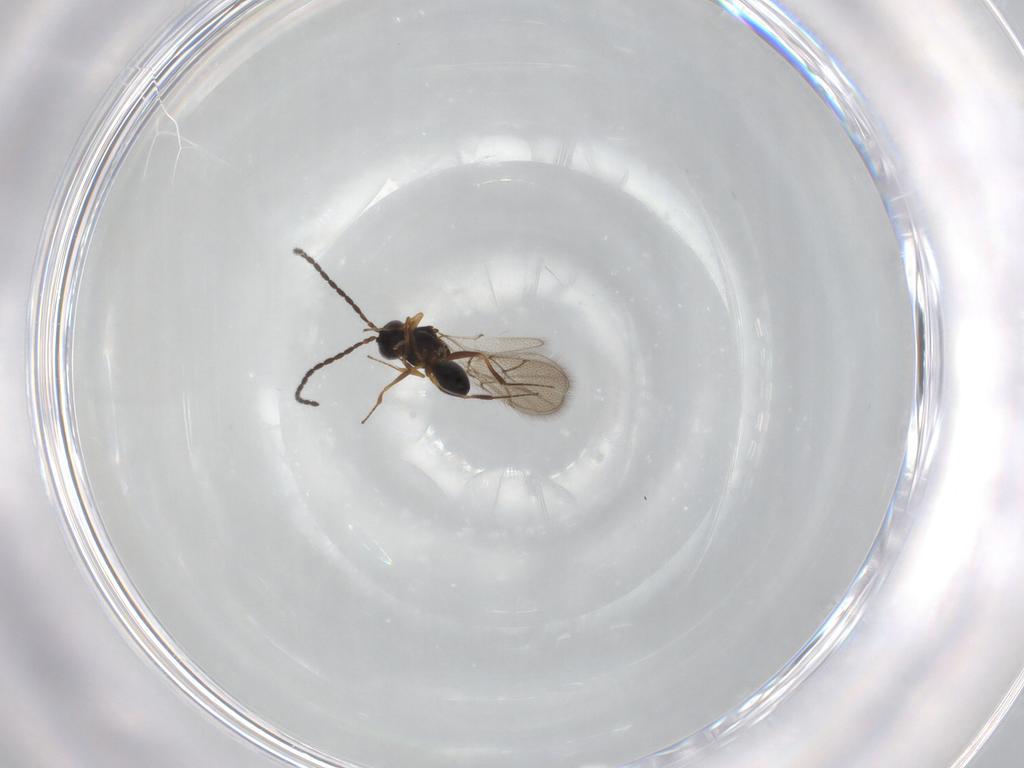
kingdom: Animalia
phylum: Arthropoda
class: Insecta
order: Hymenoptera
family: Figitidae
